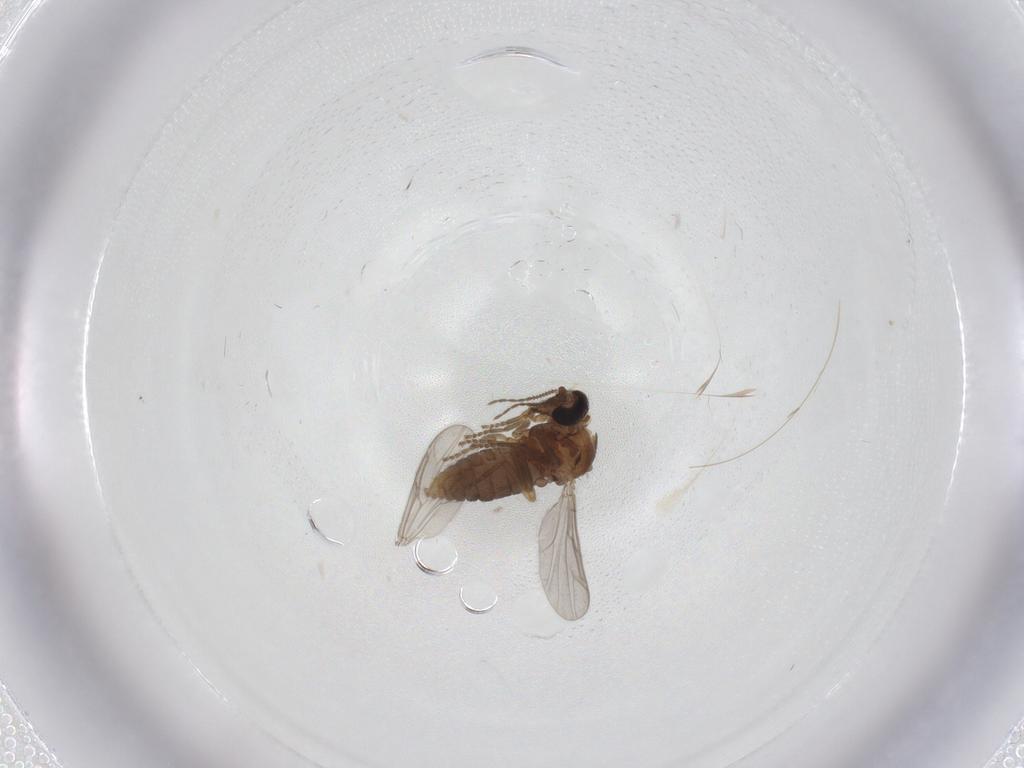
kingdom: Animalia
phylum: Arthropoda
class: Insecta
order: Diptera
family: Ceratopogonidae
